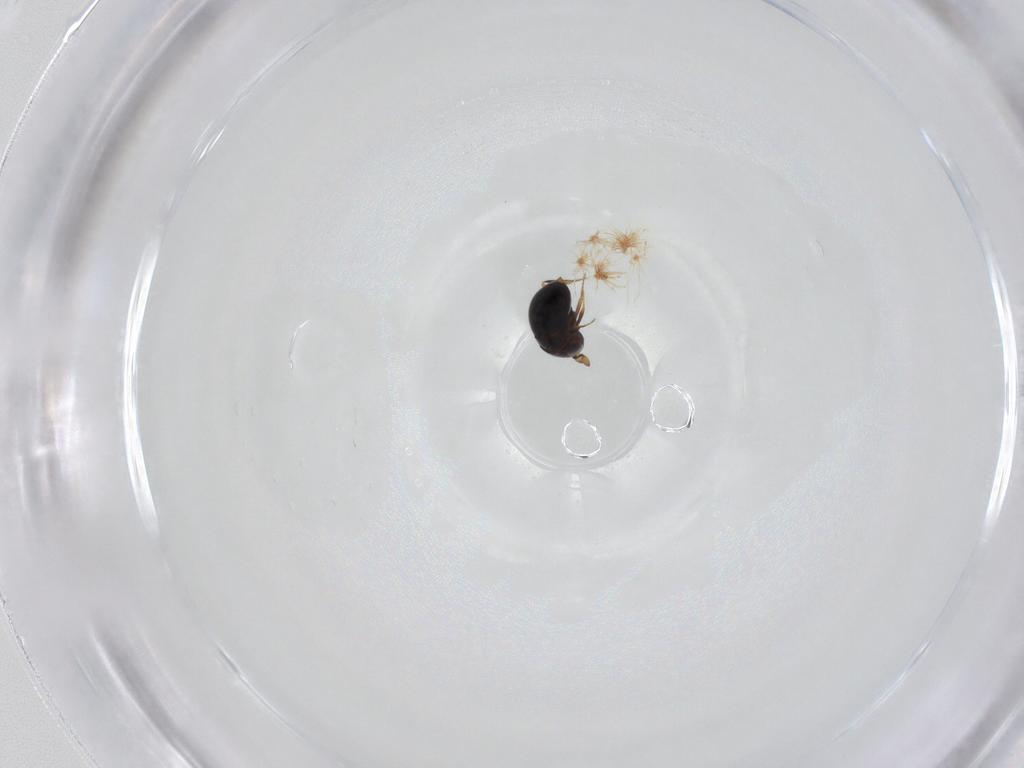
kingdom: Animalia
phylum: Arthropoda
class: Insecta
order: Hymenoptera
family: Scelionidae
